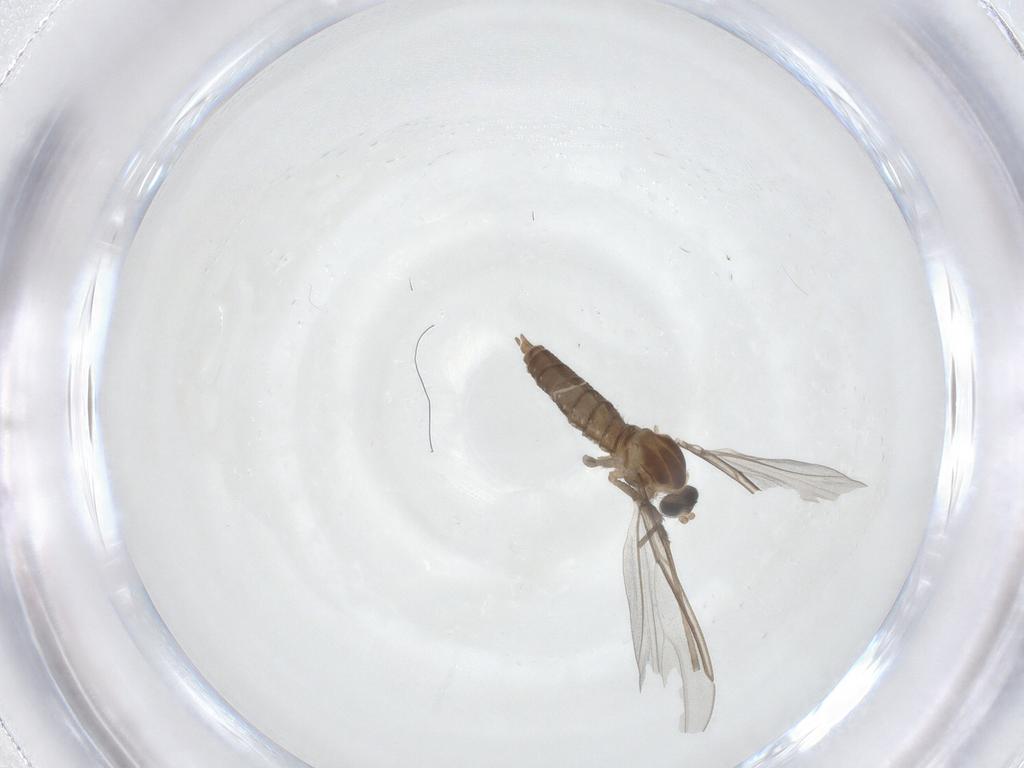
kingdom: Animalia
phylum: Arthropoda
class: Insecta
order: Diptera
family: Cecidomyiidae
